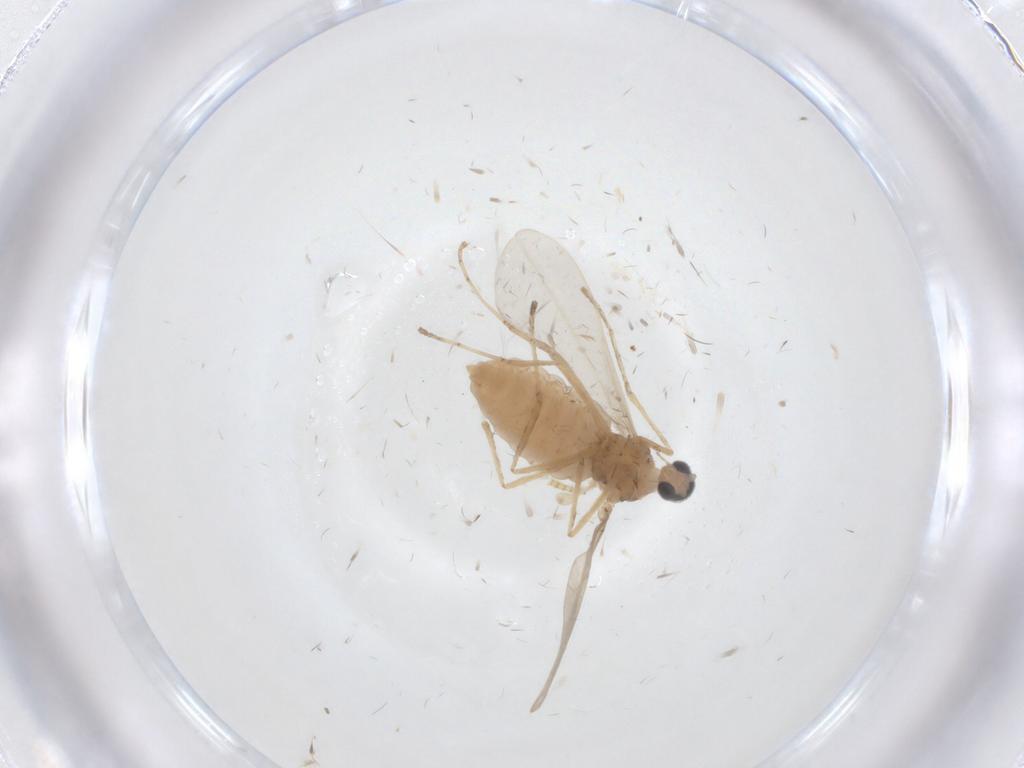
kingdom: Animalia
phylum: Arthropoda
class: Insecta
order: Diptera
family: Cecidomyiidae
